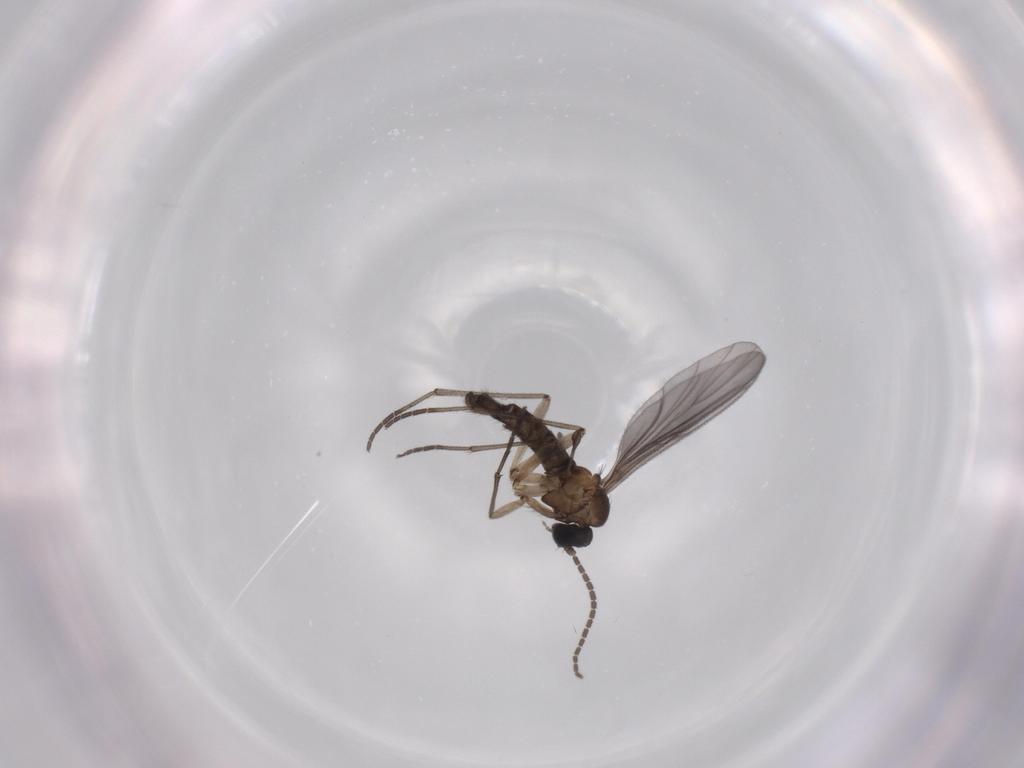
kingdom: Animalia
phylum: Arthropoda
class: Insecta
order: Diptera
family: Sciaridae
